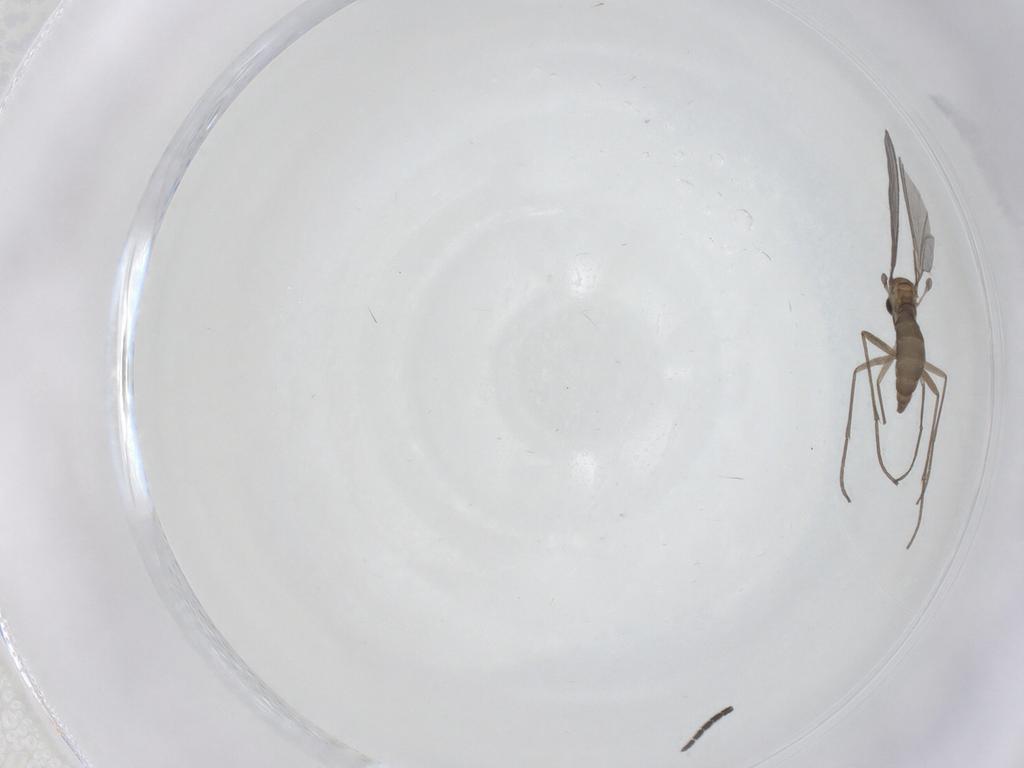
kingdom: Animalia
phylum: Arthropoda
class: Insecta
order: Diptera
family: Sciaridae
